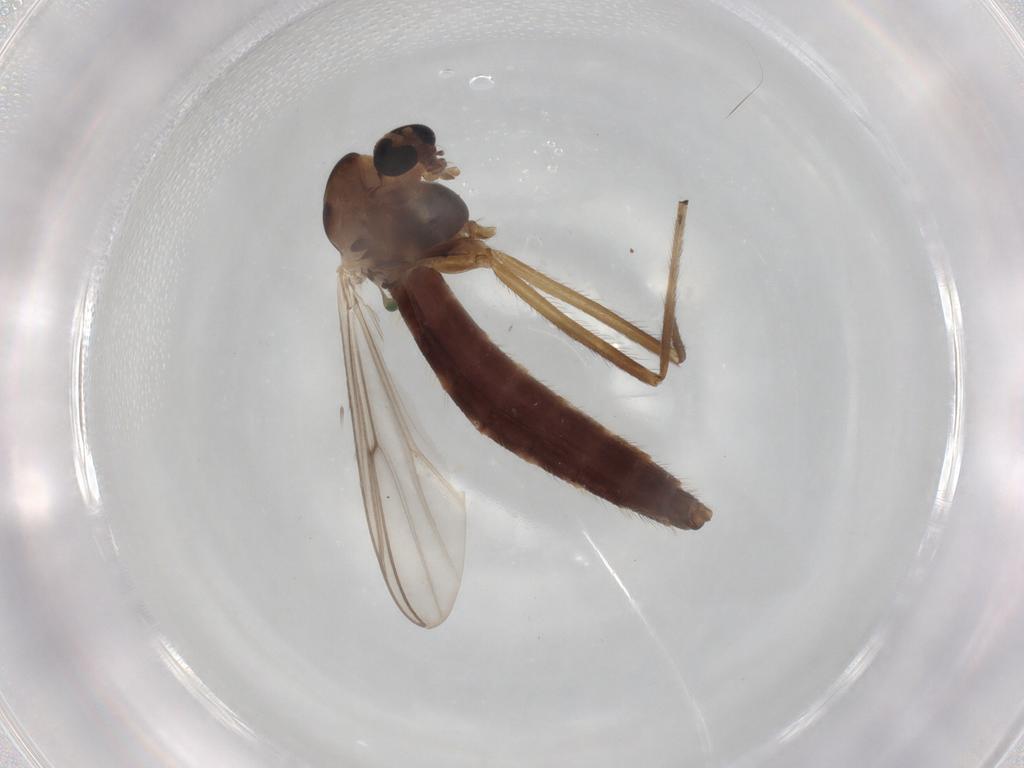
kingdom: Animalia
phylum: Arthropoda
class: Insecta
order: Diptera
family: Chironomidae
